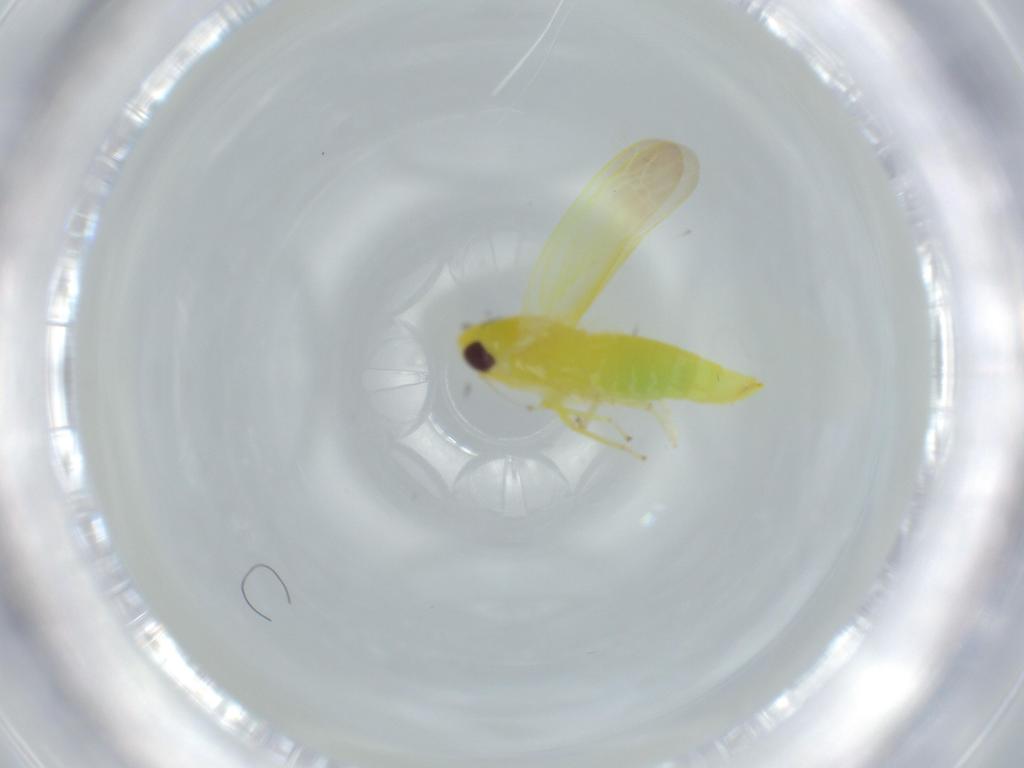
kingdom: Animalia
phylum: Arthropoda
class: Insecta
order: Hemiptera
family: Cicadellidae
